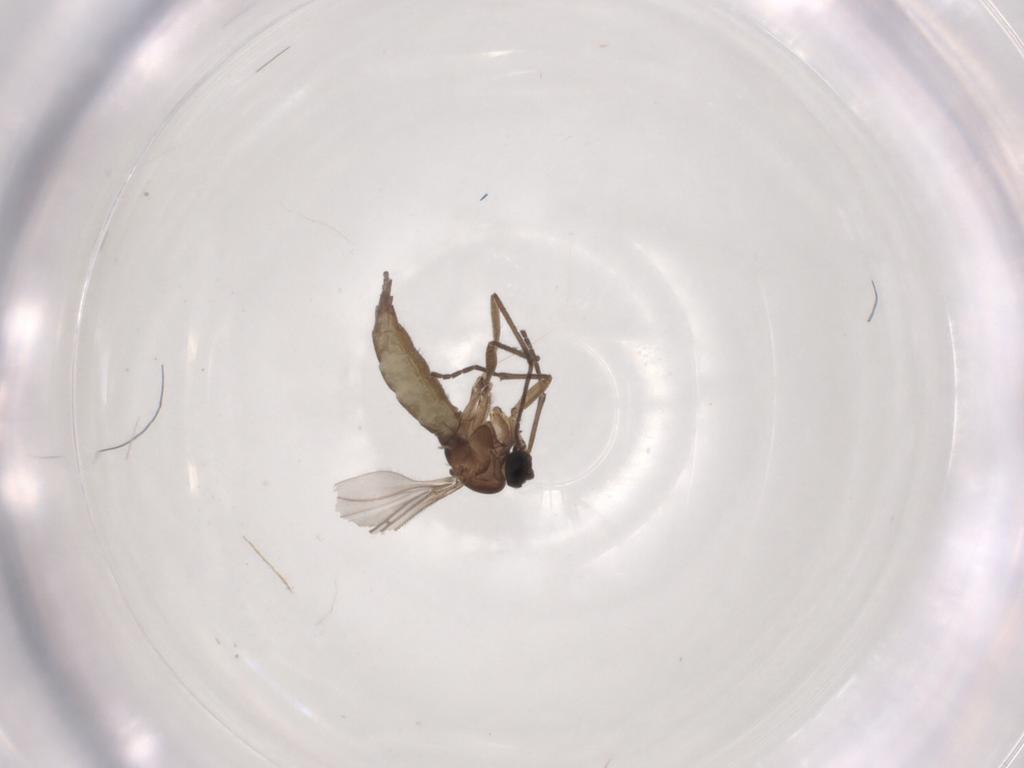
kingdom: Animalia
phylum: Arthropoda
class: Insecta
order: Diptera
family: Sciaridae
